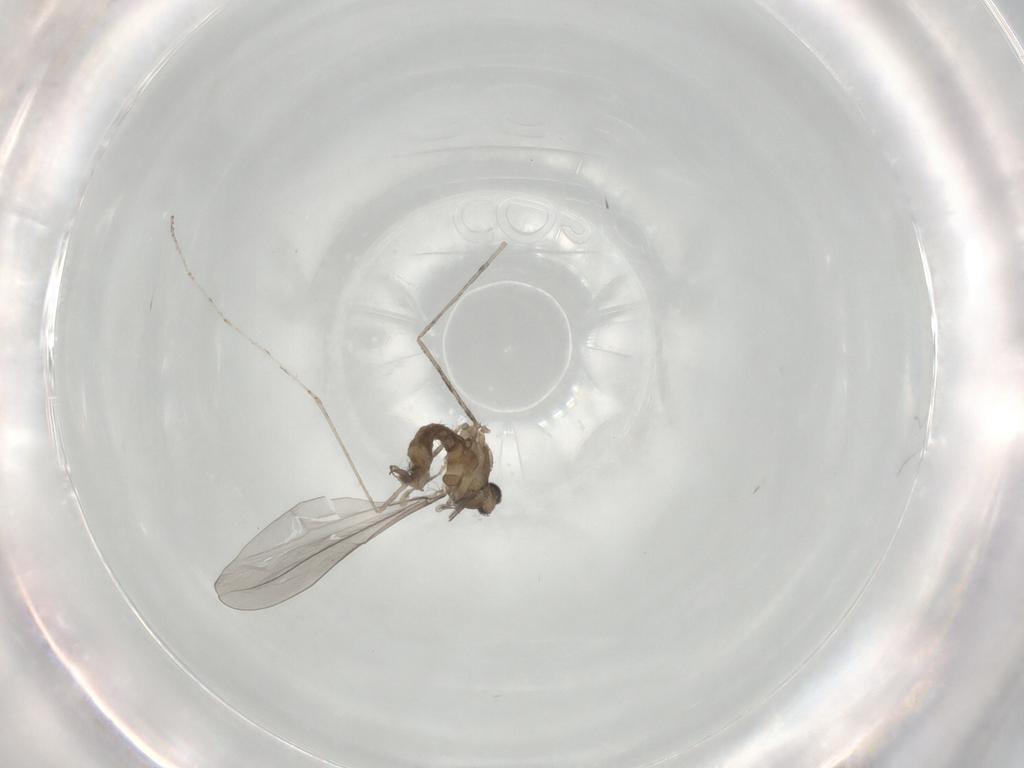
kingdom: Animalia
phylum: Arthropoda
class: Insecta
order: Diptera
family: Cecidomyiidae
